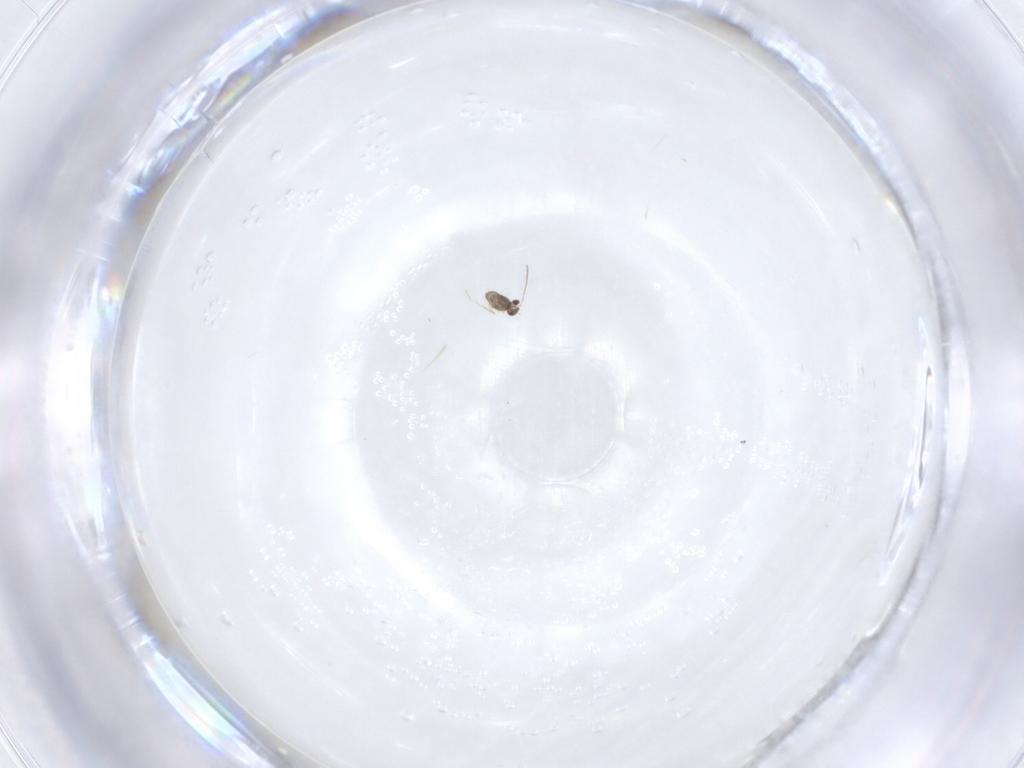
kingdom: Animalia
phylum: Arthropoda
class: Insecta
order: Hymenoptera
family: Mymaridae
